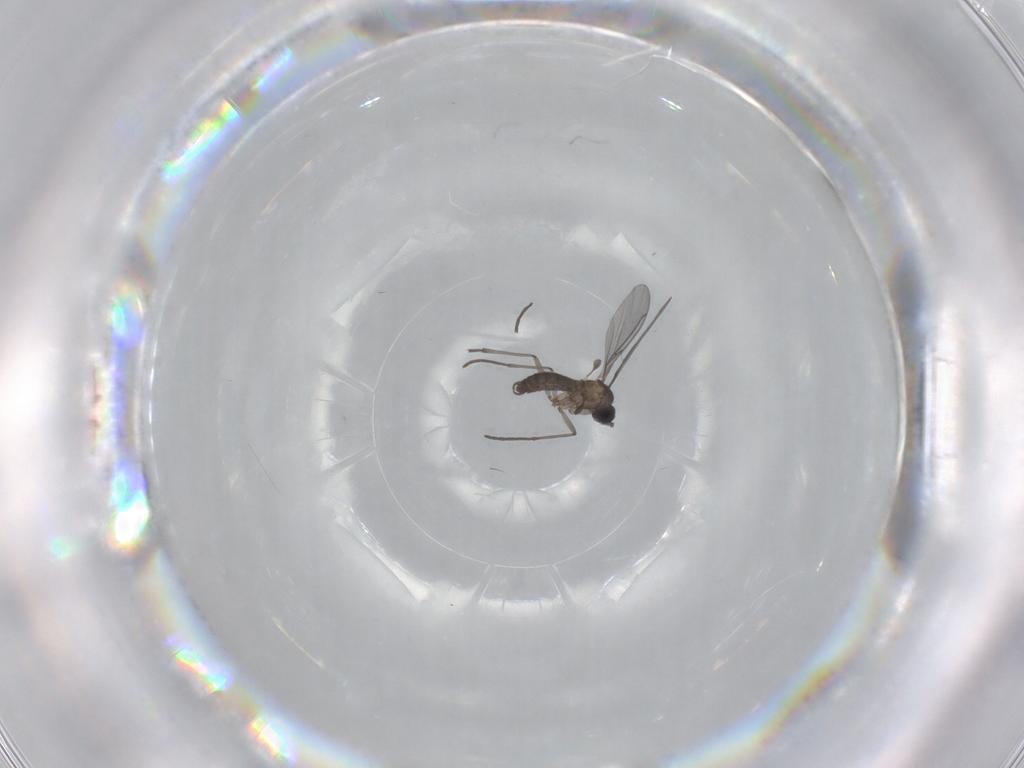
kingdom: Animalia
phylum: Arthropoda
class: Insecta
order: Diptera
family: Sciaridae
